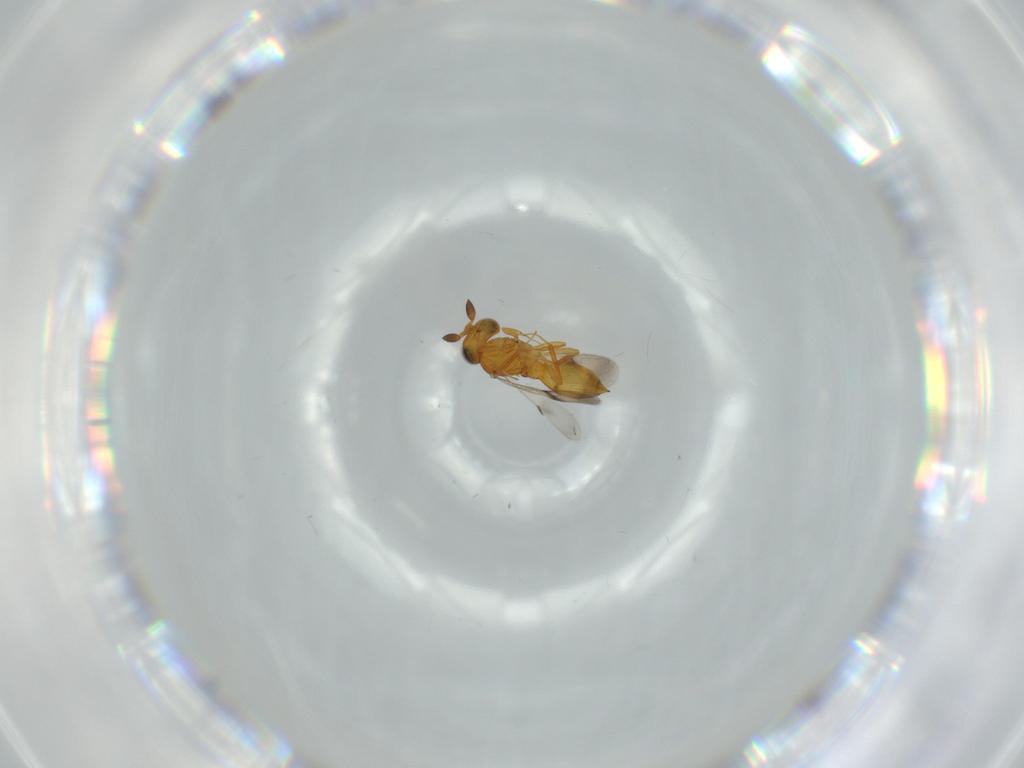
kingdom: Animalia
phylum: Arthropoda
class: Insecta
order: Hymenoptera
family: Scelionidae
